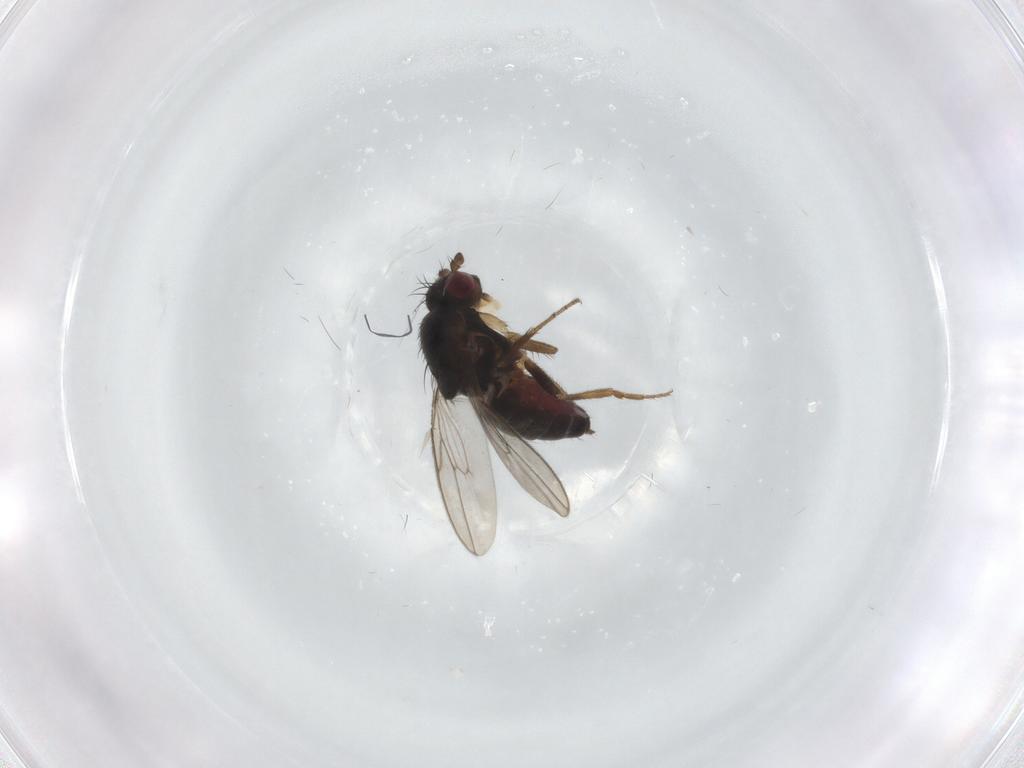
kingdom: Animalia
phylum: Arthropoda
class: Insecta
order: Diptera
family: Sphaeroceridae
